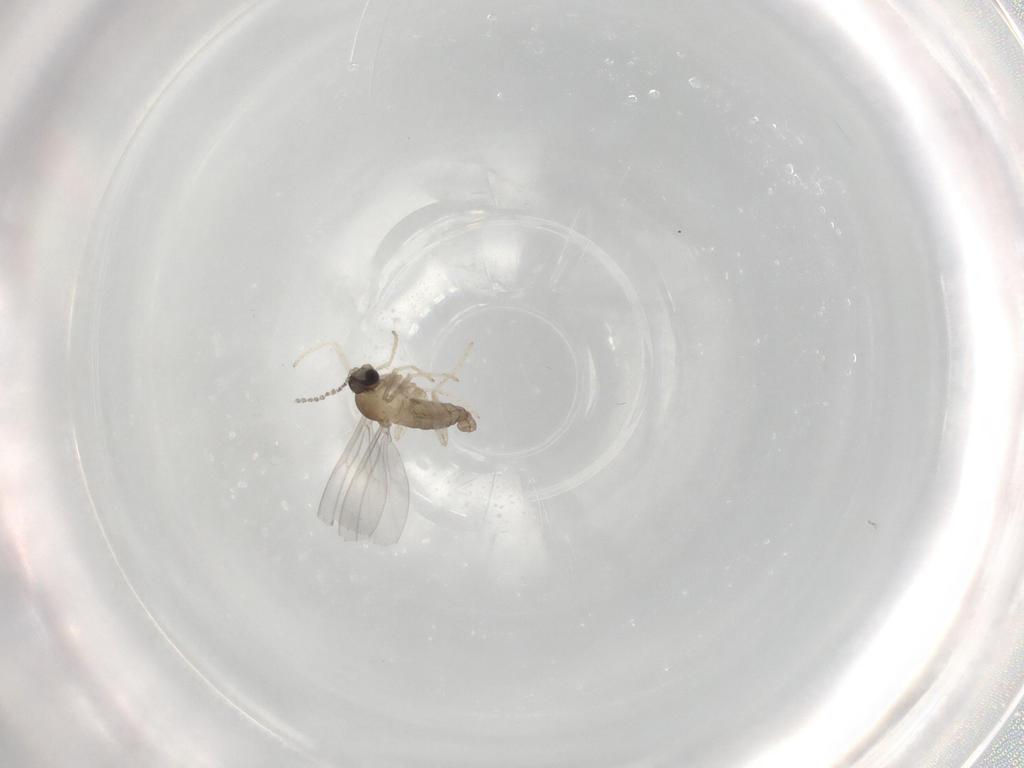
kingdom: Animalia
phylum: Arthropoda
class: Insecta
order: Diptera
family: Cecidomyiidae
